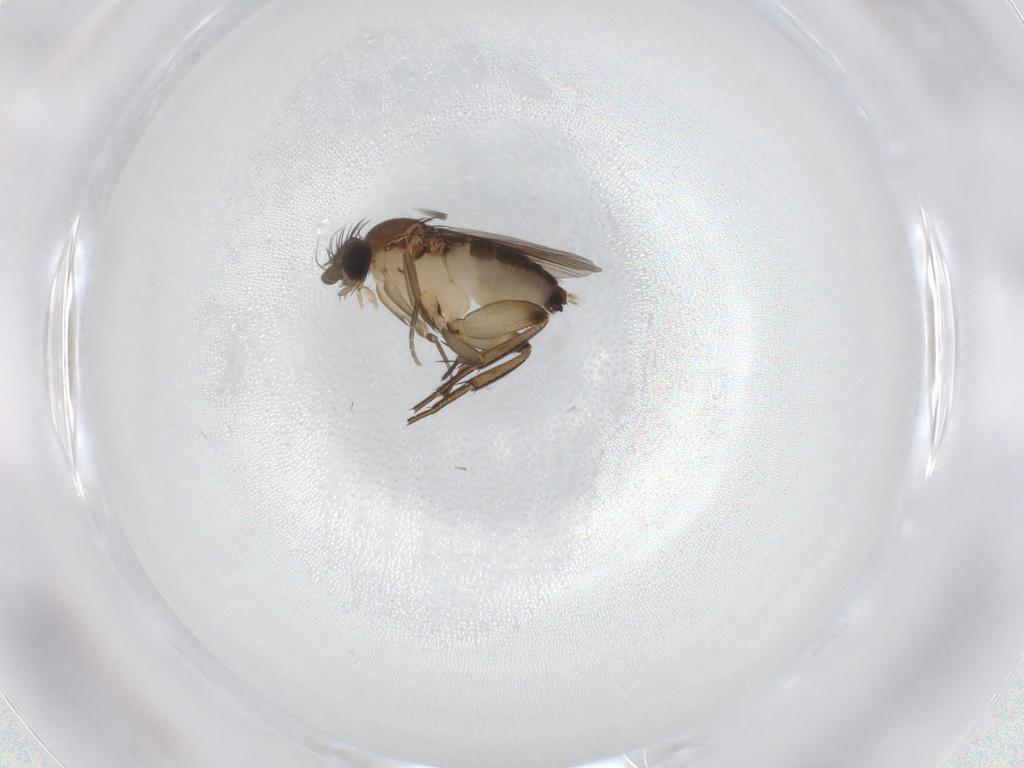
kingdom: Animalia
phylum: Arthropoda
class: Insecta
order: Diptera
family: Phoridae
